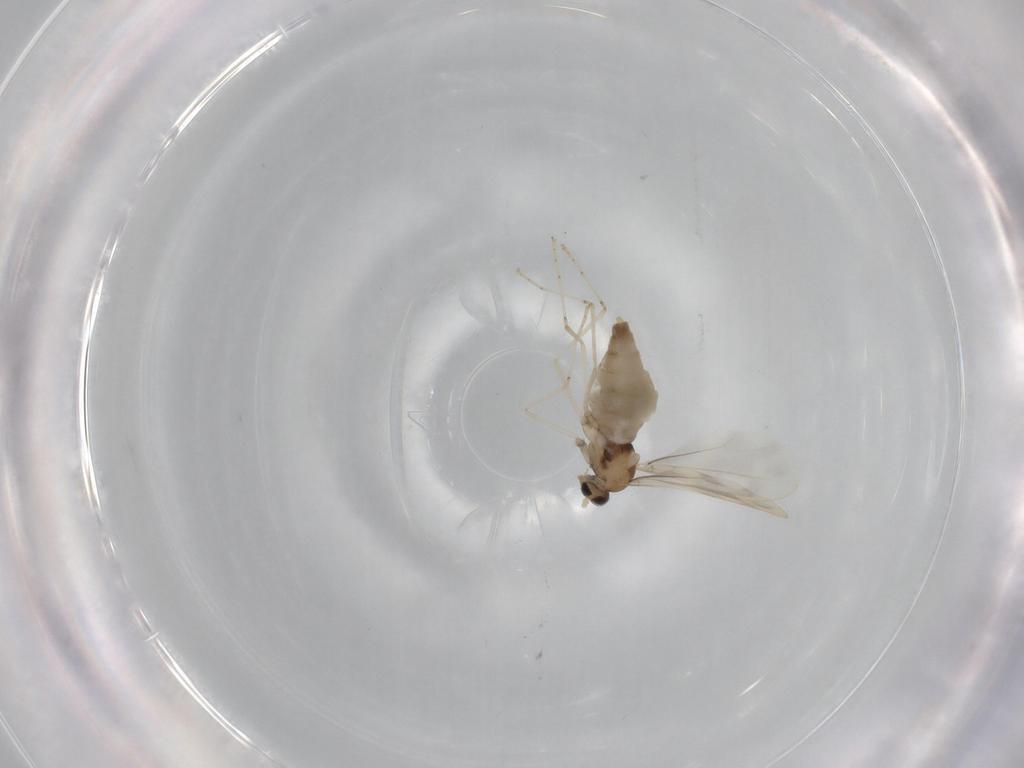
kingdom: Animalia
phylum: Arthropoda
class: Insecta
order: Diptera
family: Cecidomyiidae
